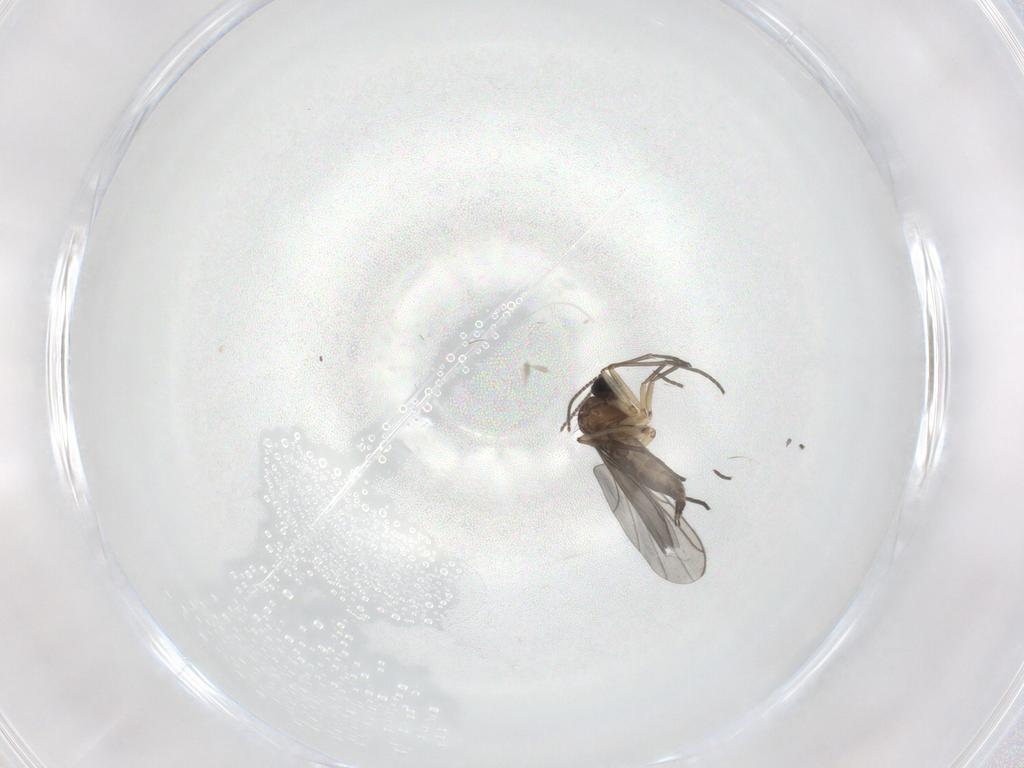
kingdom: Animalia
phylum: Arthropoda
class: Insecta
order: Diptera
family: Sciaridae
